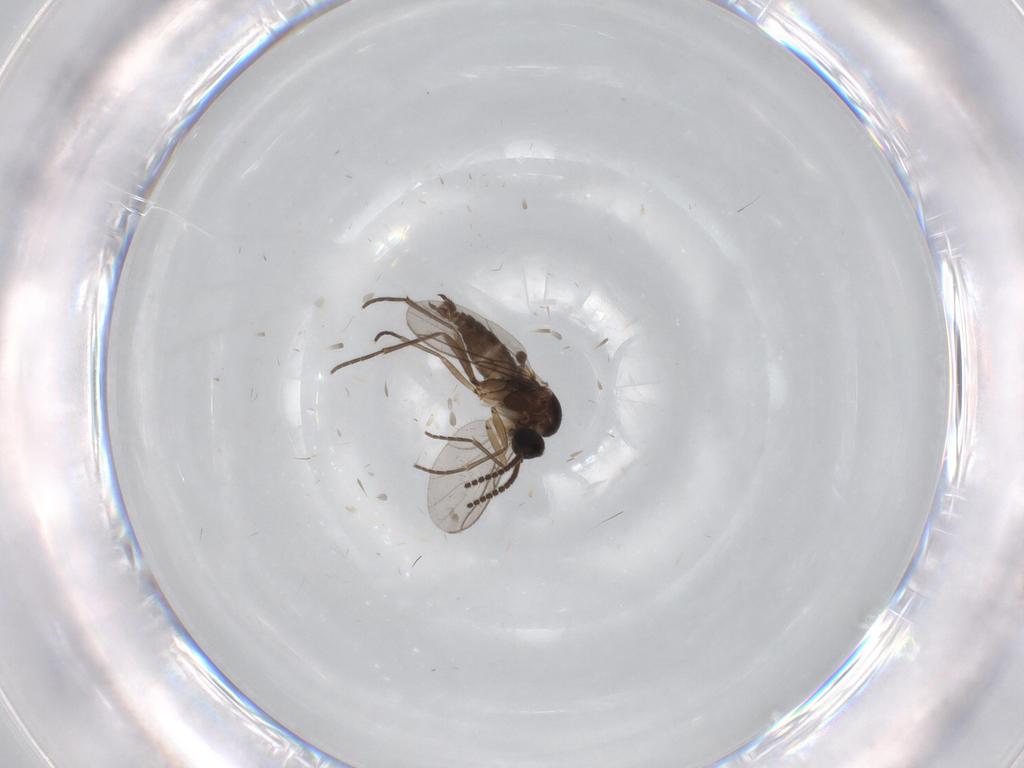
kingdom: Animalia
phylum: Arthropoda
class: Insecta
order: Diptera
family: Sciaridae
